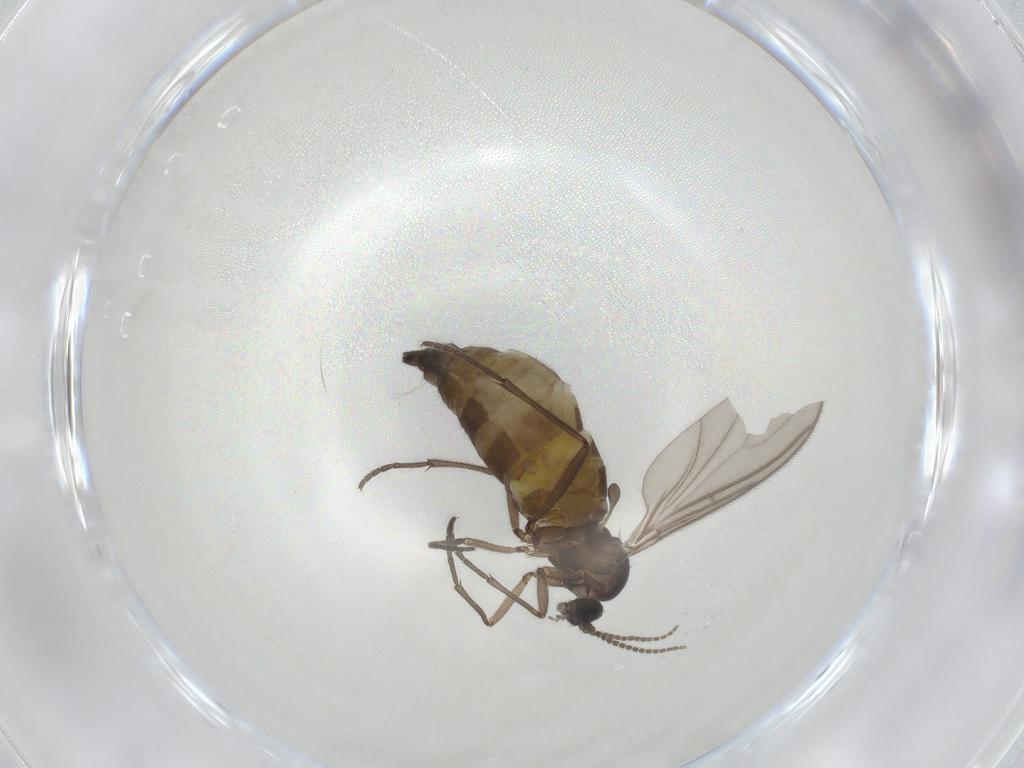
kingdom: Animalia
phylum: Arthropoda
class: Insecta
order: Diptera
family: Sciaridae
